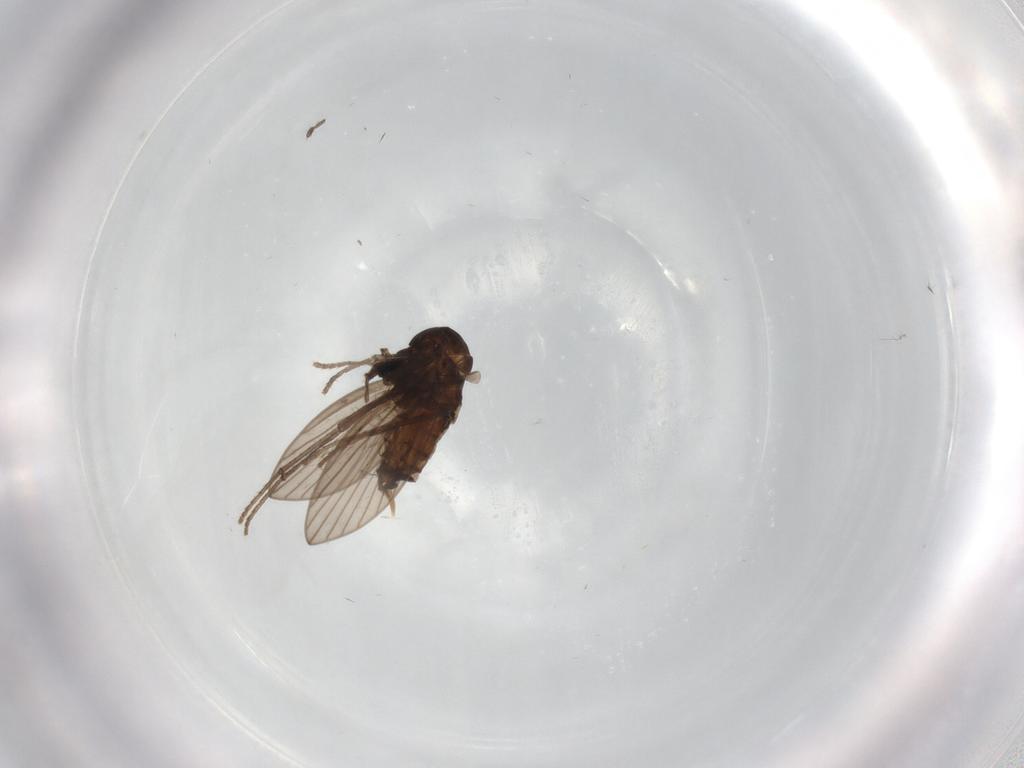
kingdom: Animalia
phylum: Arthropoda
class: Insecta
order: Diptera
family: Psychodidae
